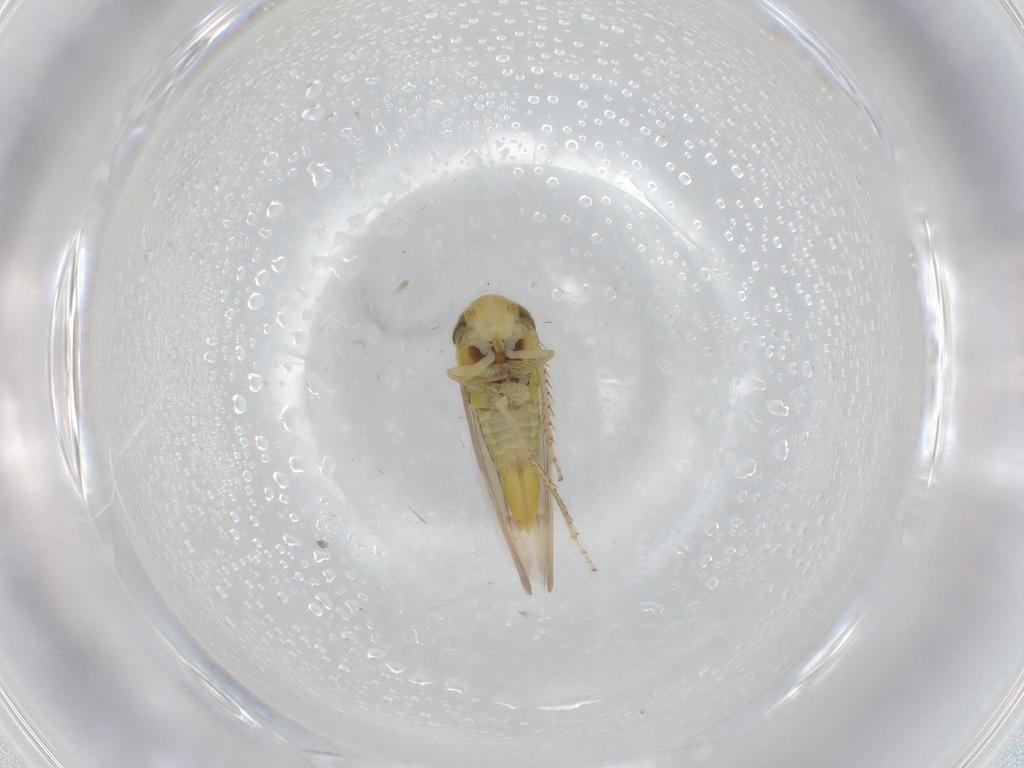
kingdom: Animalia
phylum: Arthropoda
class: Insecta
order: Hemiptera
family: Cicadellidae
